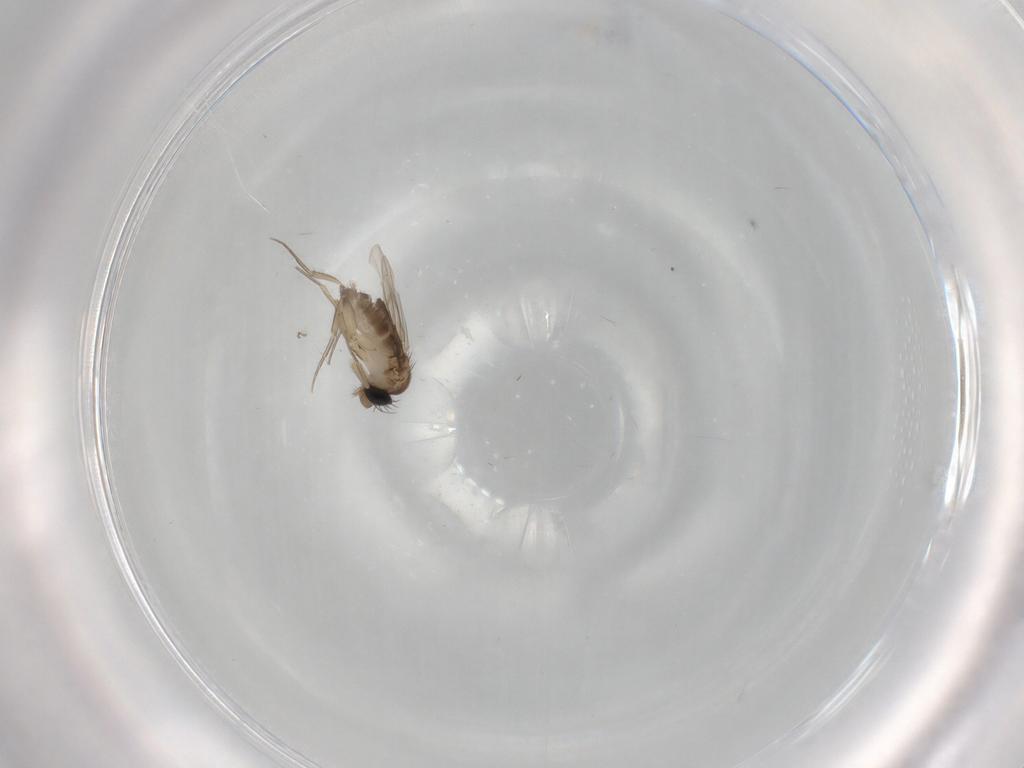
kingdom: Animalia
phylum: Arthropoda
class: Insecta
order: Diptera
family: Phoridae
